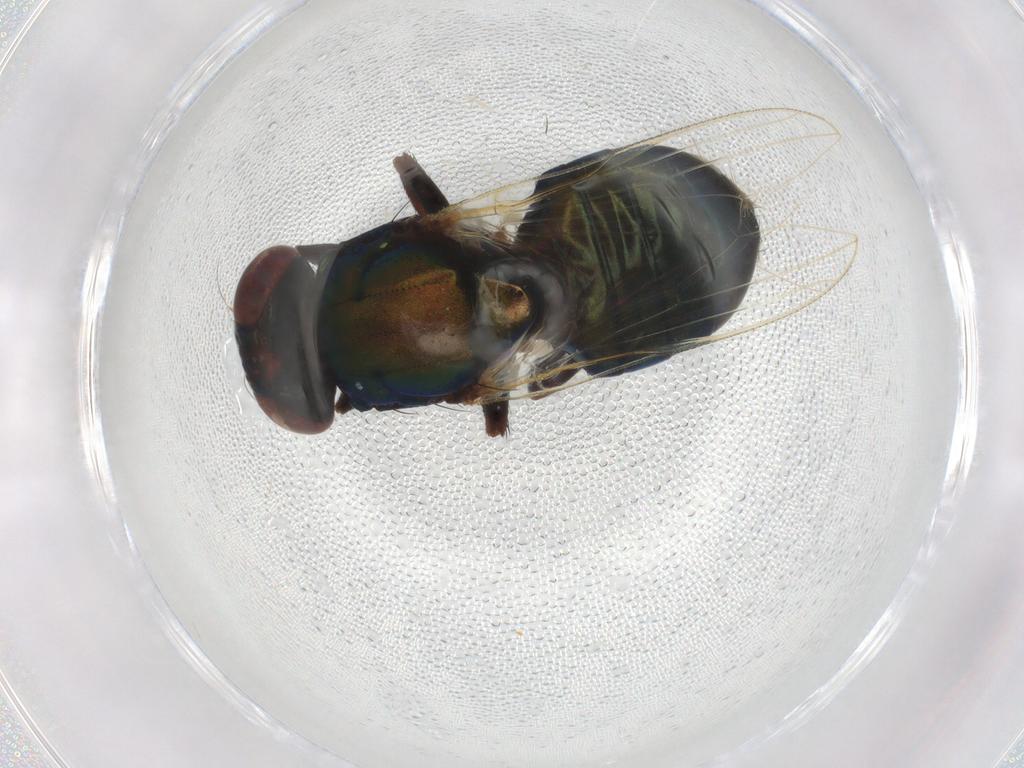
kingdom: Animalia
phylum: Arthropoda
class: Insecta
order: Diptera
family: Ulidiidae
